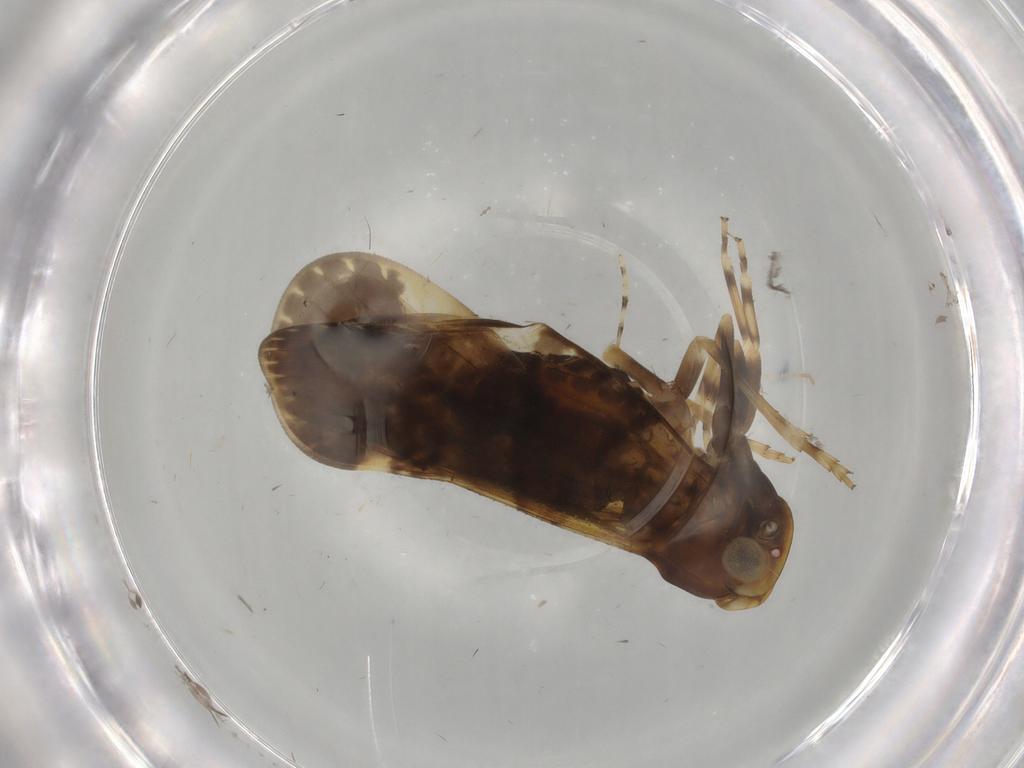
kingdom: Animalia
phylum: Arthropoda
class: Insecta
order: Hemiptera
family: Cixiidae
